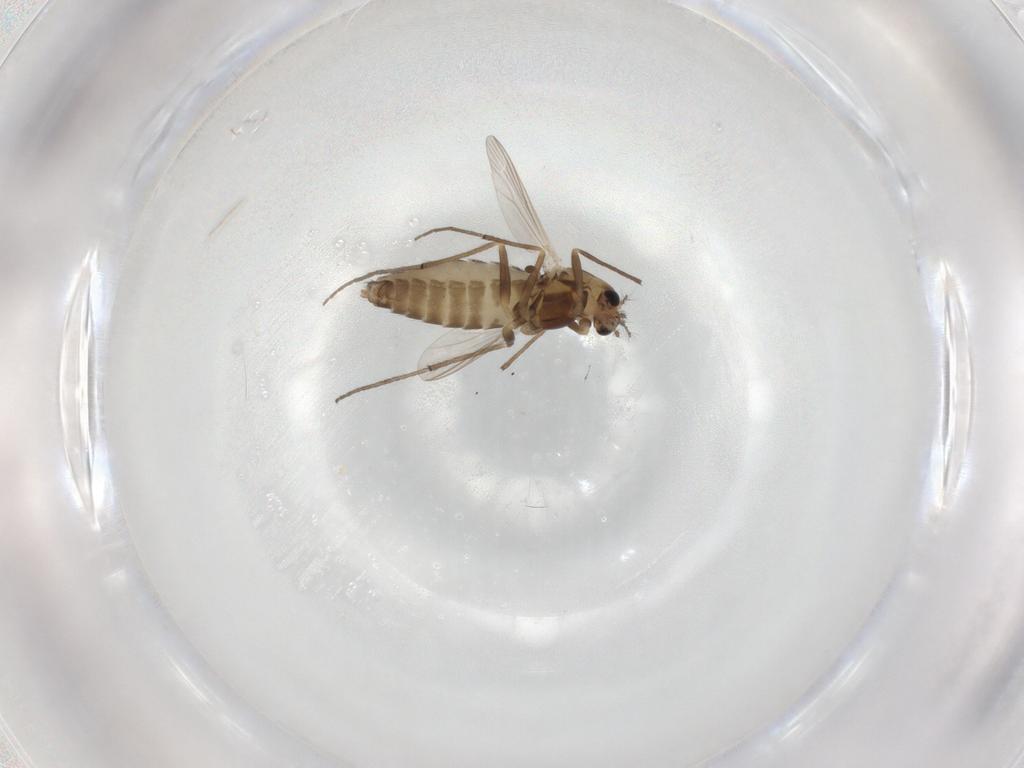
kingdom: Animalia
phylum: Arthropoda
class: Insecta
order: Diptera
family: Chironomidae
